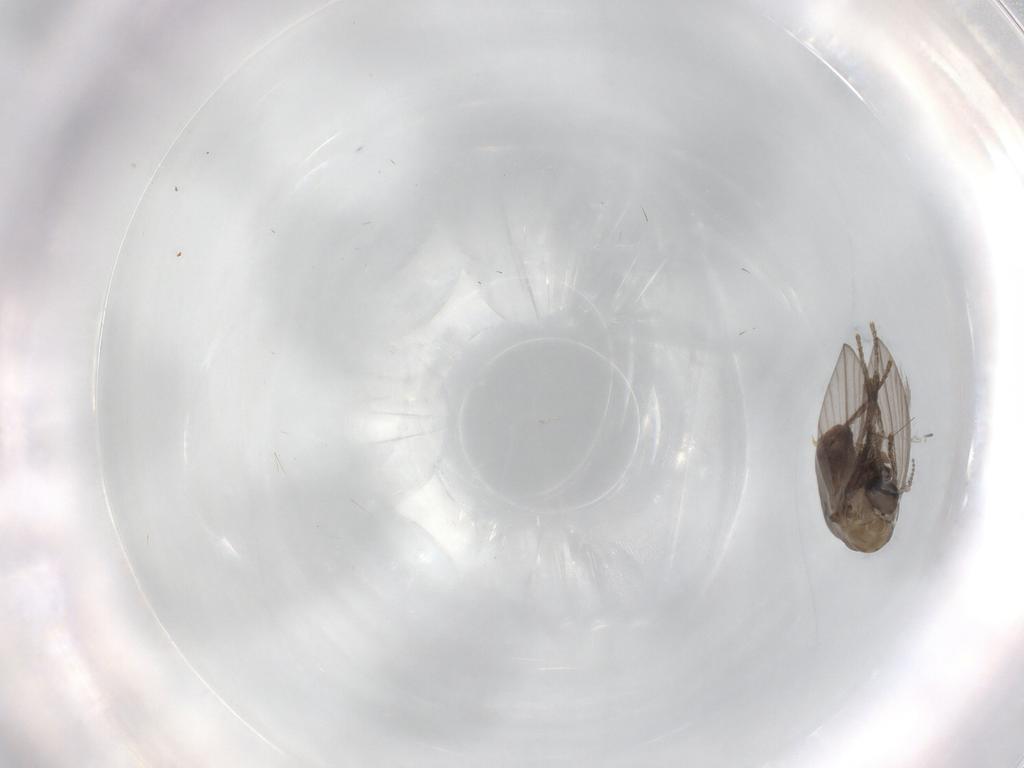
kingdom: Animalia
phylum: Arthropoda
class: Insecta
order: Diptera
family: Psychodidae
